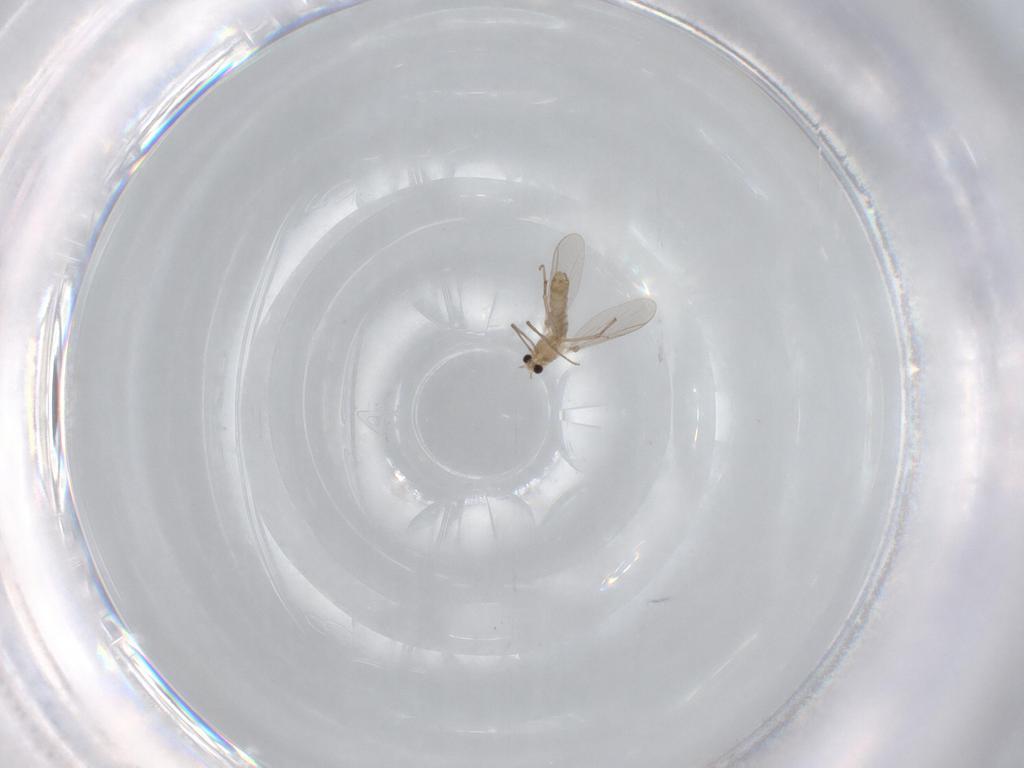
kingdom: Animalia
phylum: Arthropoda
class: Insecta
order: Diptera
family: Chironomidae
